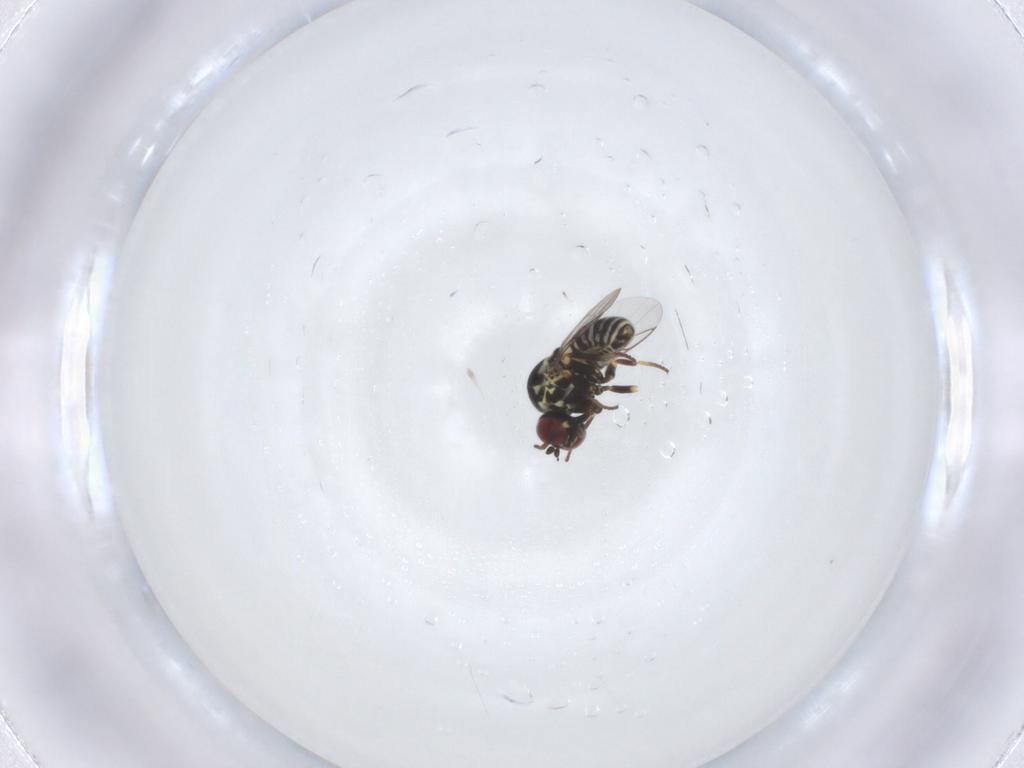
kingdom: Animalia
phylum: Arthropoda
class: Insecta
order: Diptera
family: Mythicomyiidae
